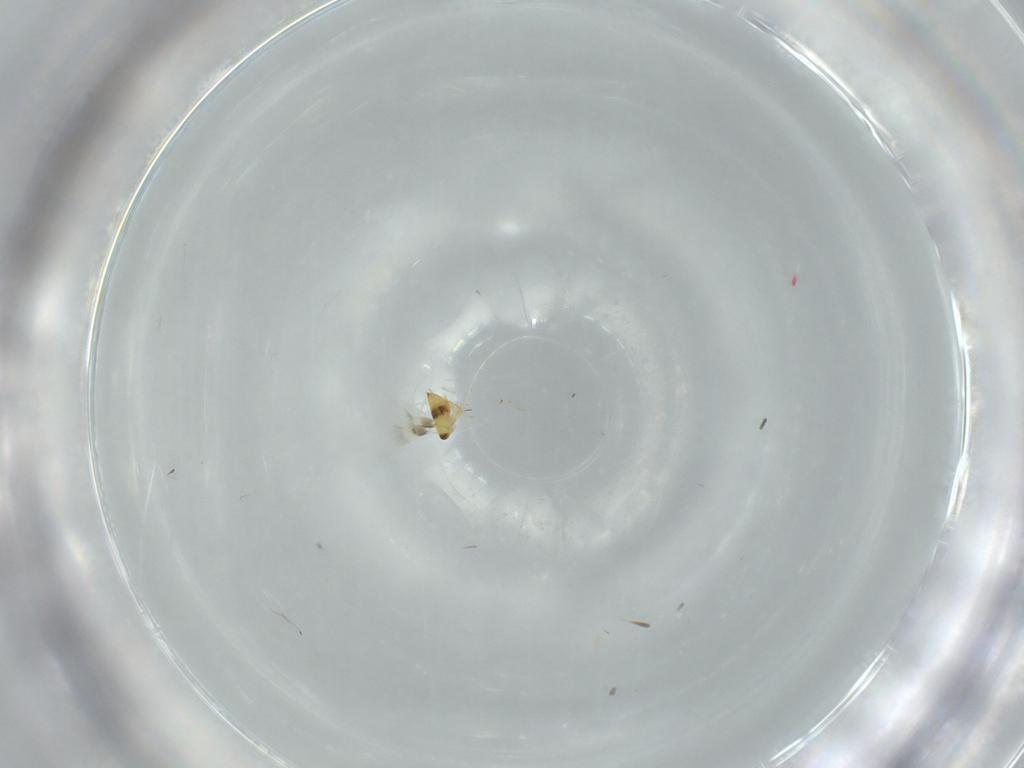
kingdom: Animalia
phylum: Arthropoda
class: Insecta
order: Hymenoptera
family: Signiphoridae
